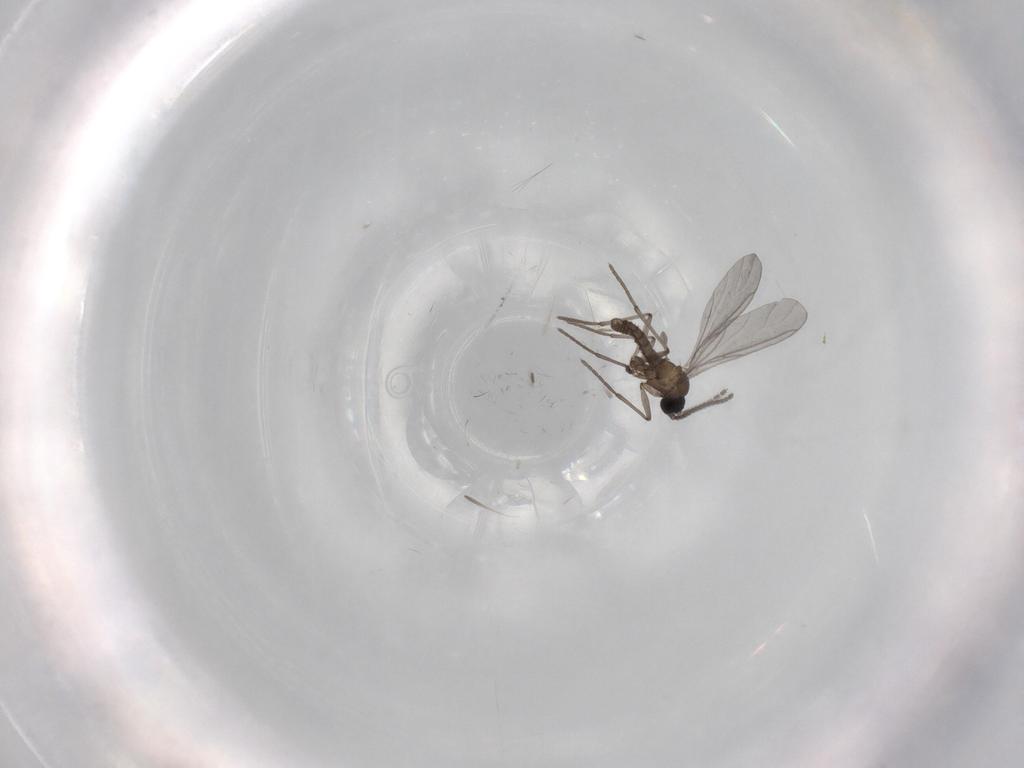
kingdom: Animalia
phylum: Arthropoda
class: Insecta
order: Diptera
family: Sciaridae
